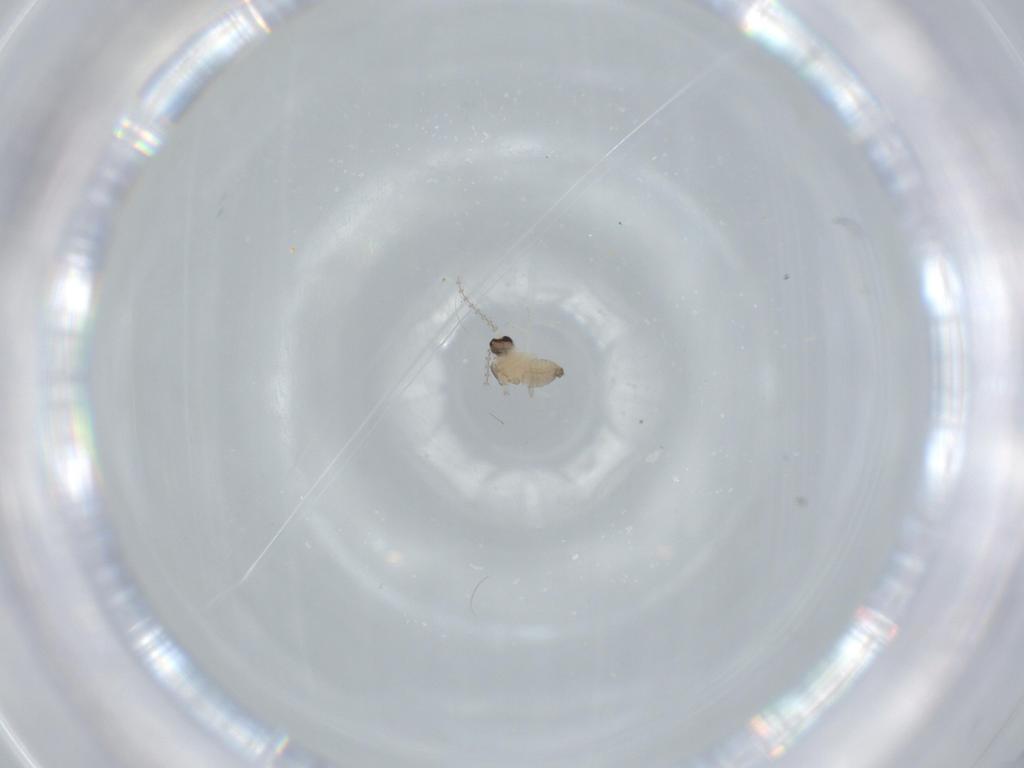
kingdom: Animalia
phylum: Arthropoda
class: Insecta
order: Diptera
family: Cecidomyiidae
